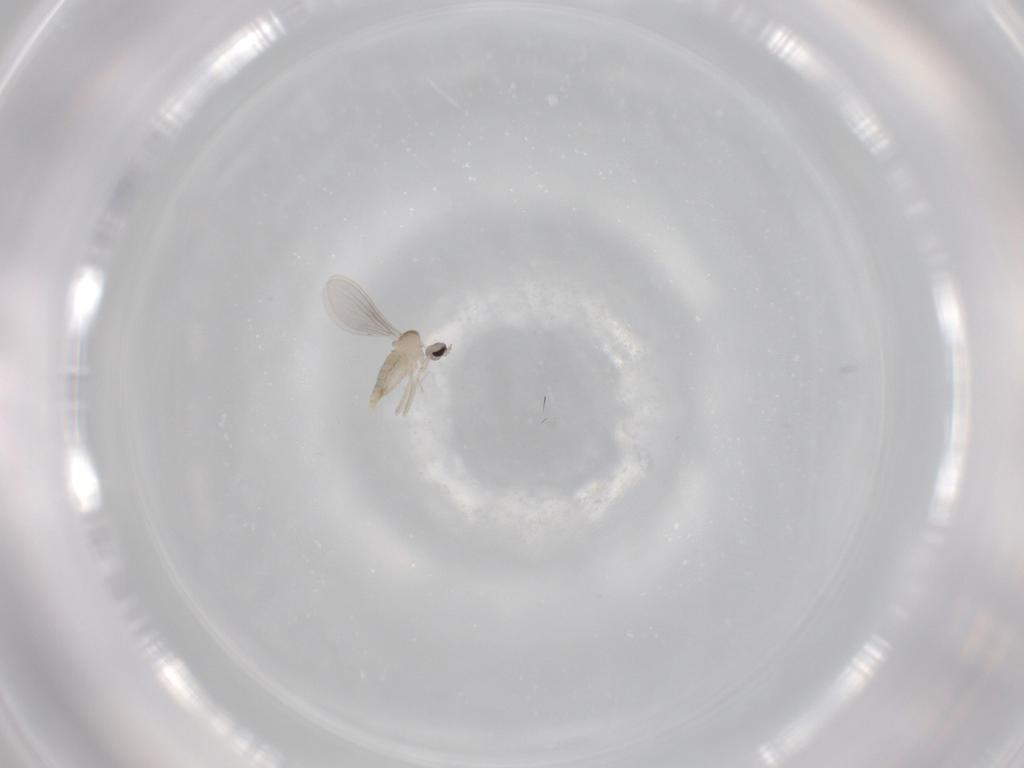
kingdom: Animalia
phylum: Arthropoda
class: Insecta
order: Diptera
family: Cecidomyiidae
